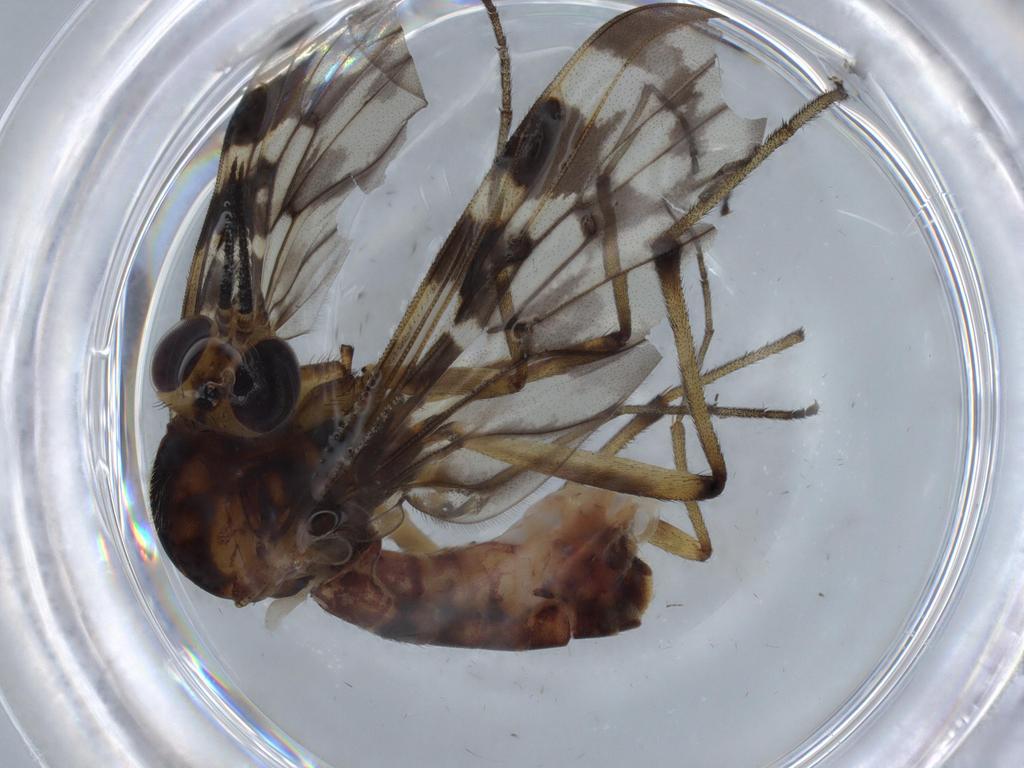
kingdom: Animalia
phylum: Arthropoda
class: Insecta
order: Diptera
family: Anisopodidae
